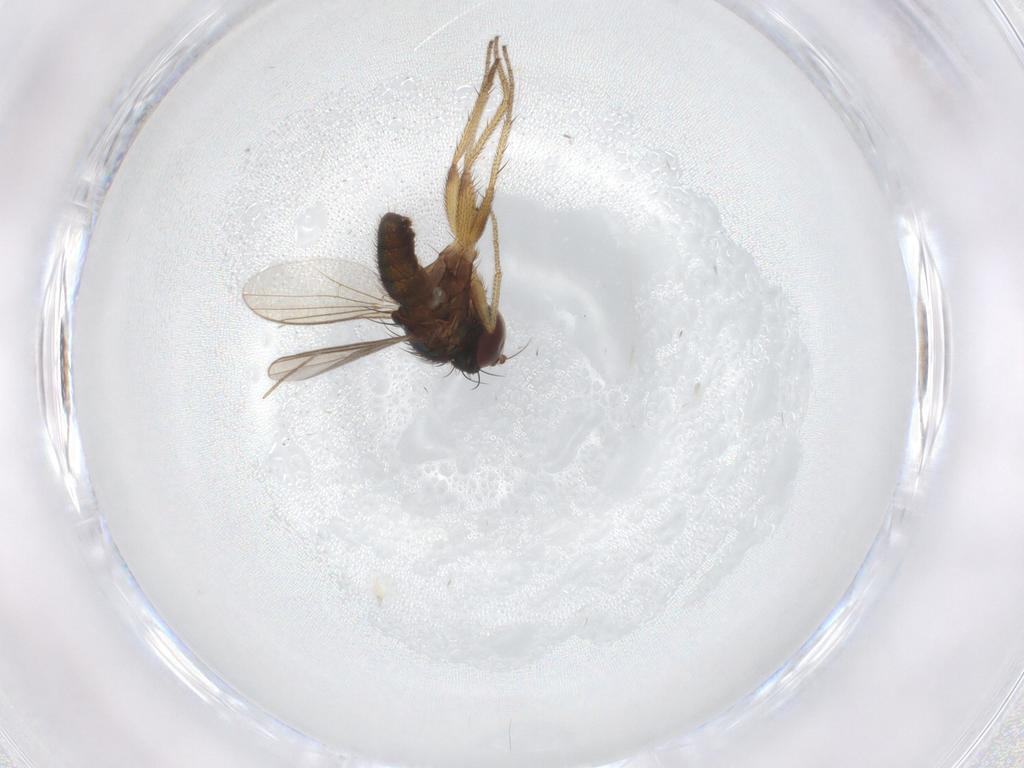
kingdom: Animalia
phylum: Arthropoda
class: Insecta
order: Diptera
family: Dolichopodidae
